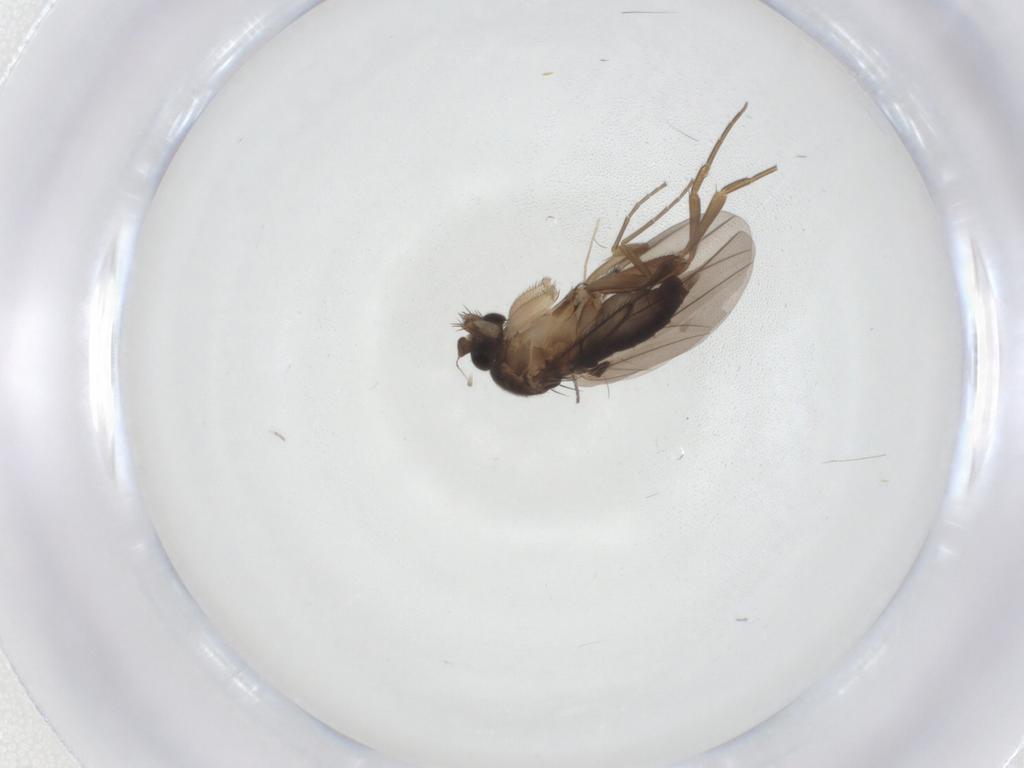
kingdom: Animalia
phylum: Arthropoda
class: Insecta
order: Diptera
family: Phoridae
